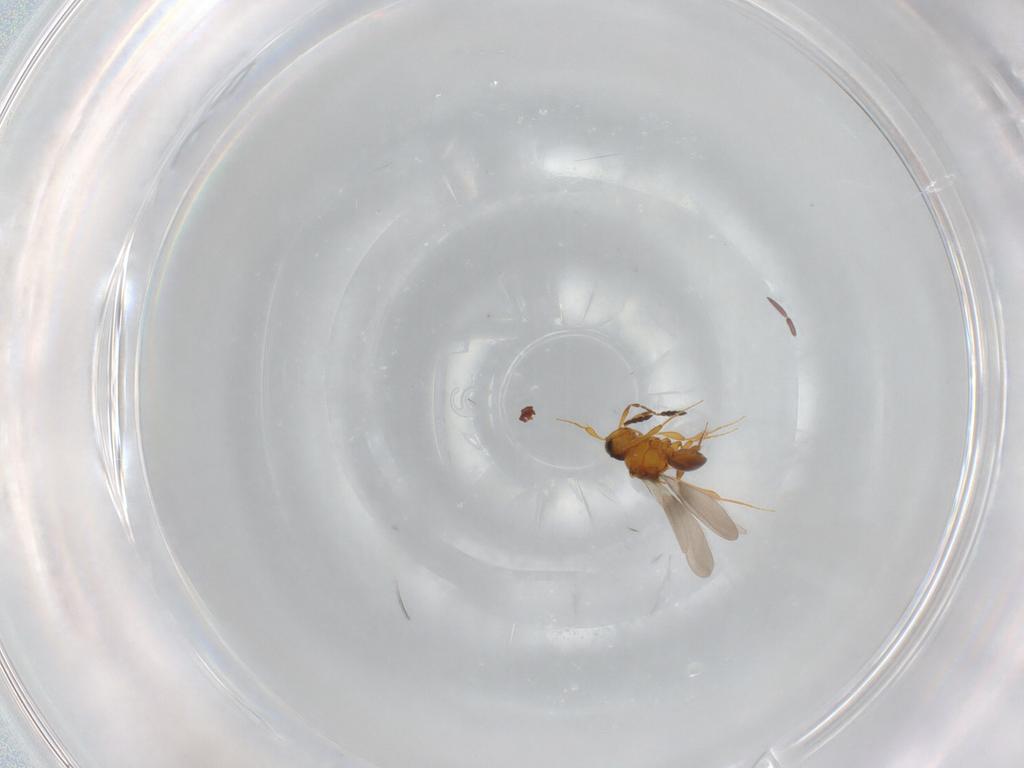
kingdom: Animalia
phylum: Arthropoda
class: Insecta
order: Hymenoptera
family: Platygastridae
